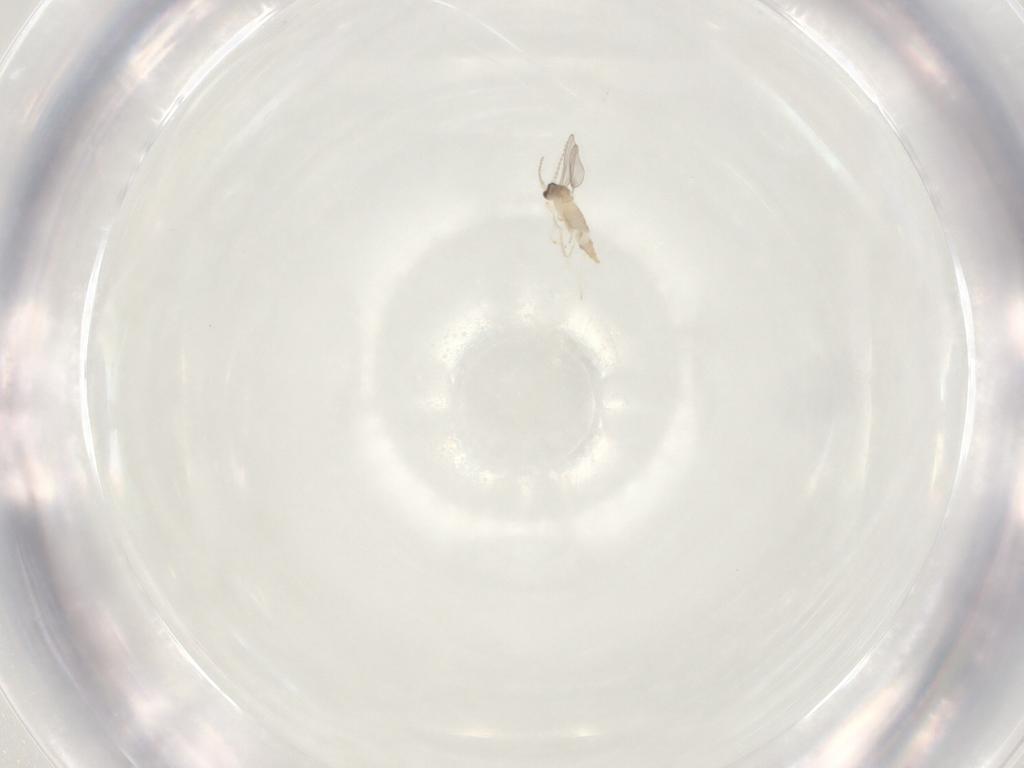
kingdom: Animalia
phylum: Arthropoda
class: Insecta
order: Diptera
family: Cecidomyiidae
